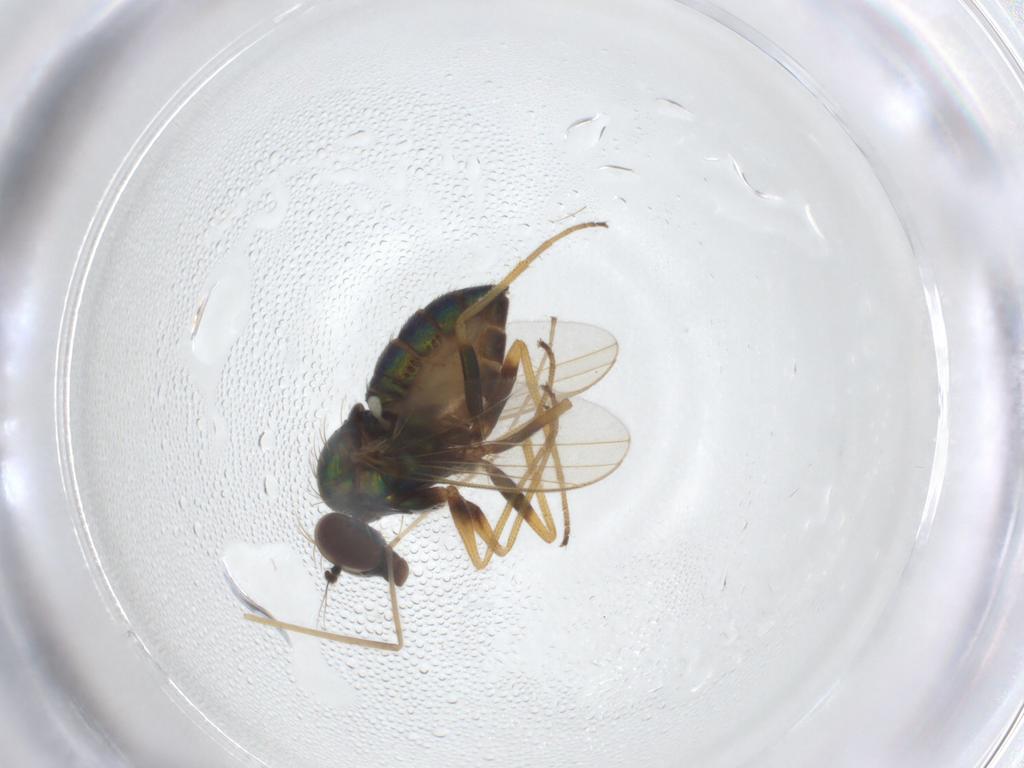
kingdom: Animalia
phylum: Arthropoda
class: Insecta
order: Diptera
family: Dolichopodidae
